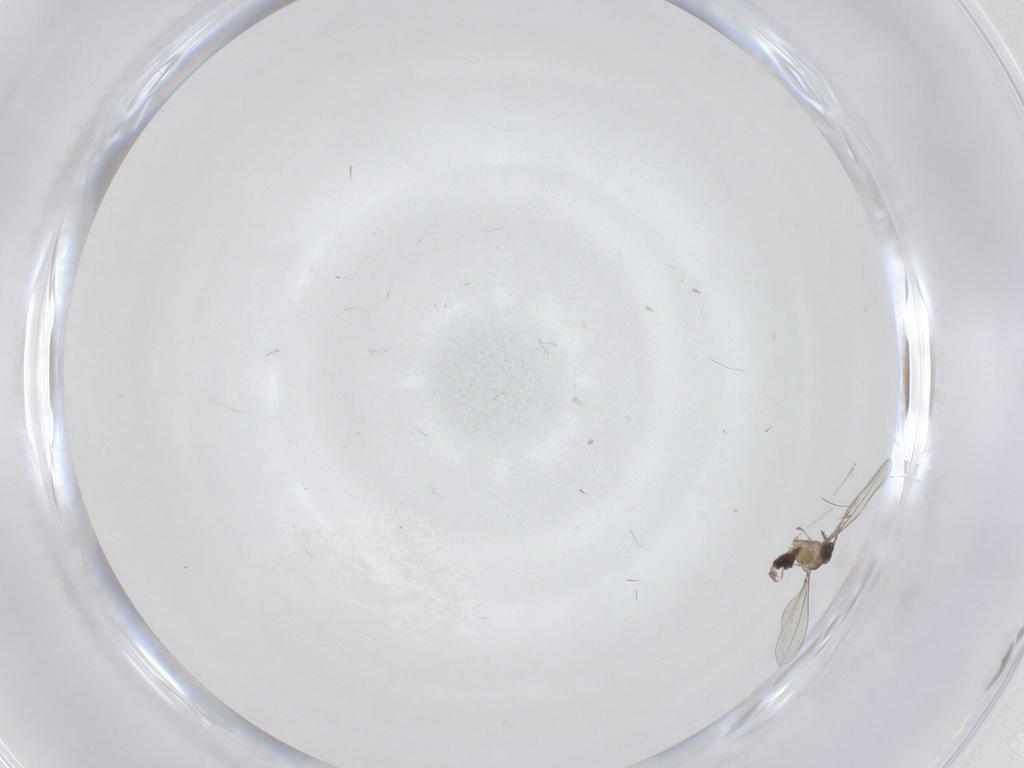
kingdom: Animalia
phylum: Arthropoda
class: Insecta
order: Diptera
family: Cecidomyiidae
